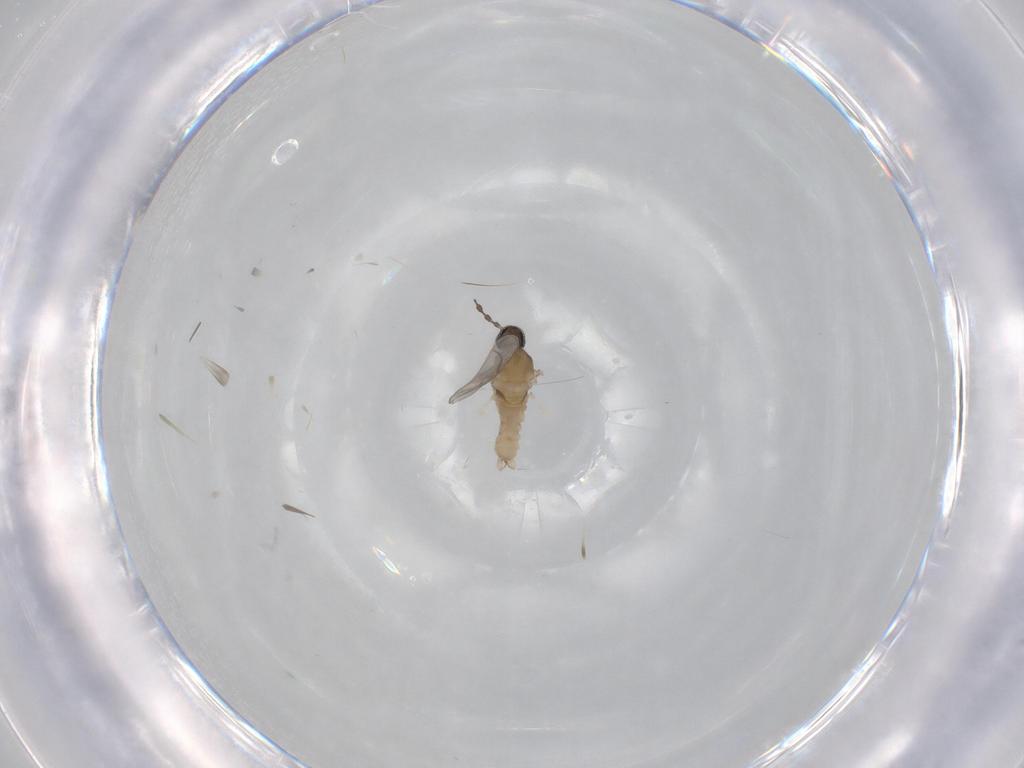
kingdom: Animalia
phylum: Arthropoda
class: Insecta
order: Diptera
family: Cecidomyiidae
